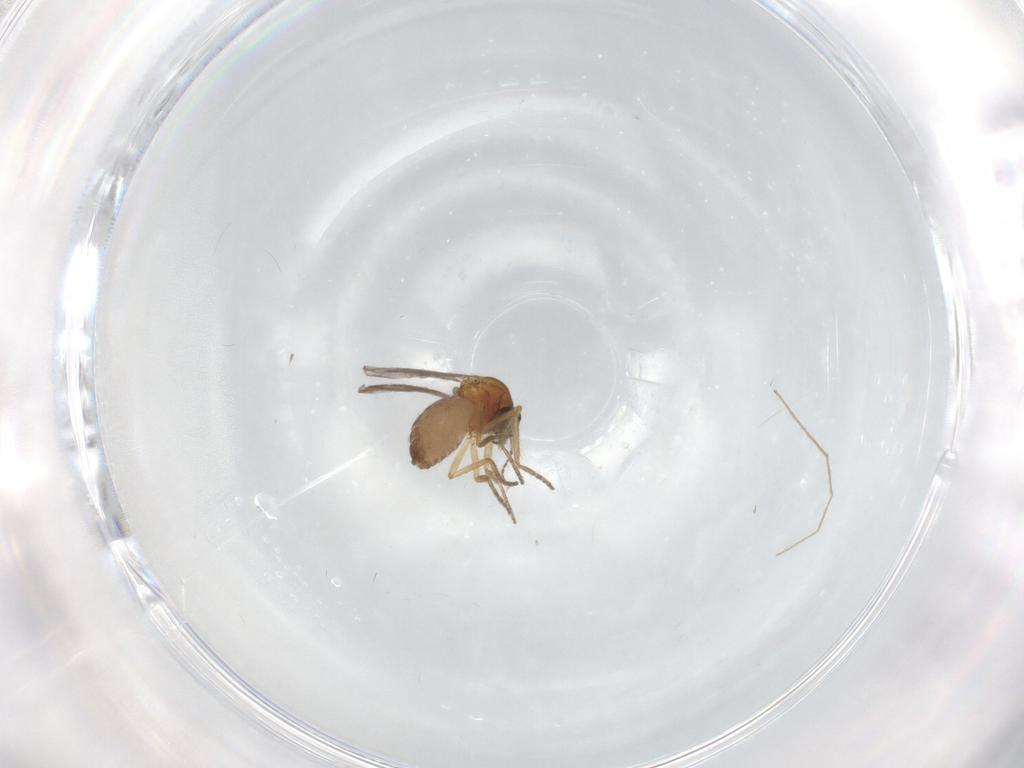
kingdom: Animalia
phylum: Arthropoda
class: Insecta
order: Diptera
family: Ceratopogonidae
